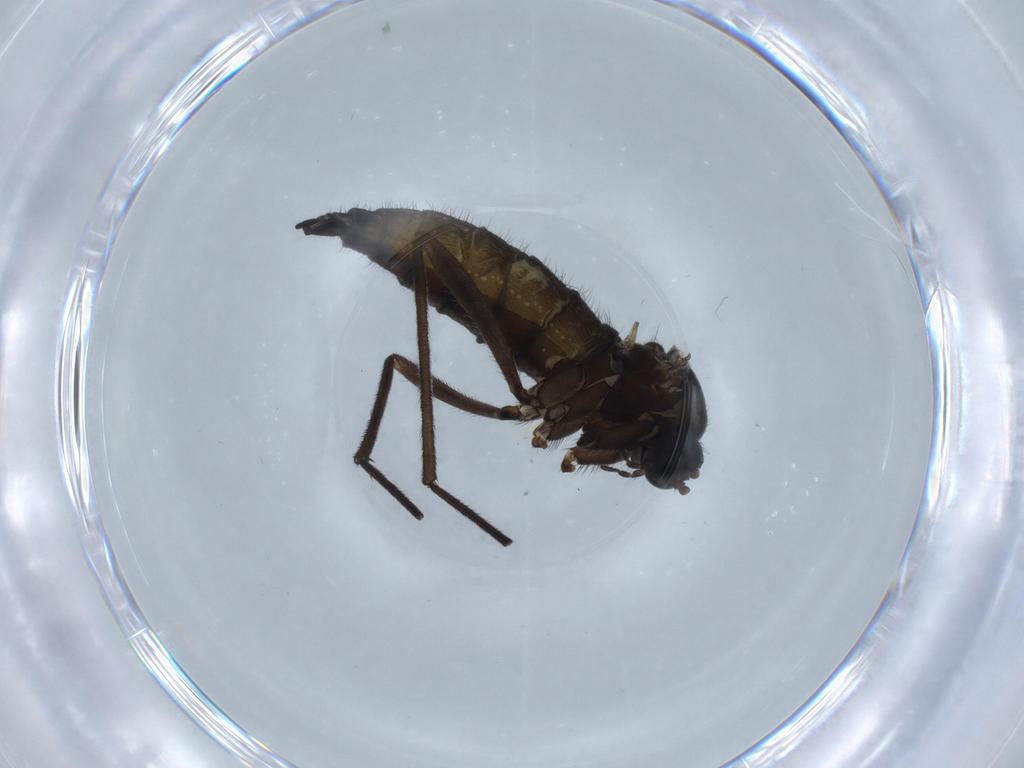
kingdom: Animalia
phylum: Arthropoda
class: Insecta
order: Diptera
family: Sciaridae
